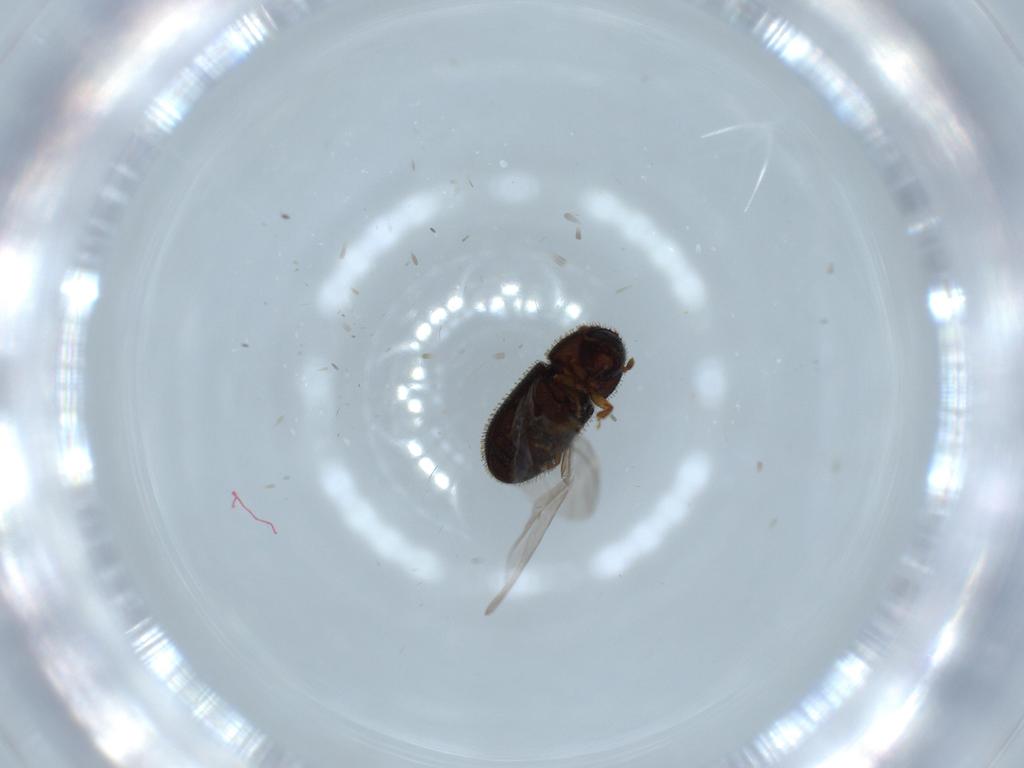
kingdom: Animalia
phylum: Arthropoda
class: Insecta
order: Coleoptera
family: Curculionidae
